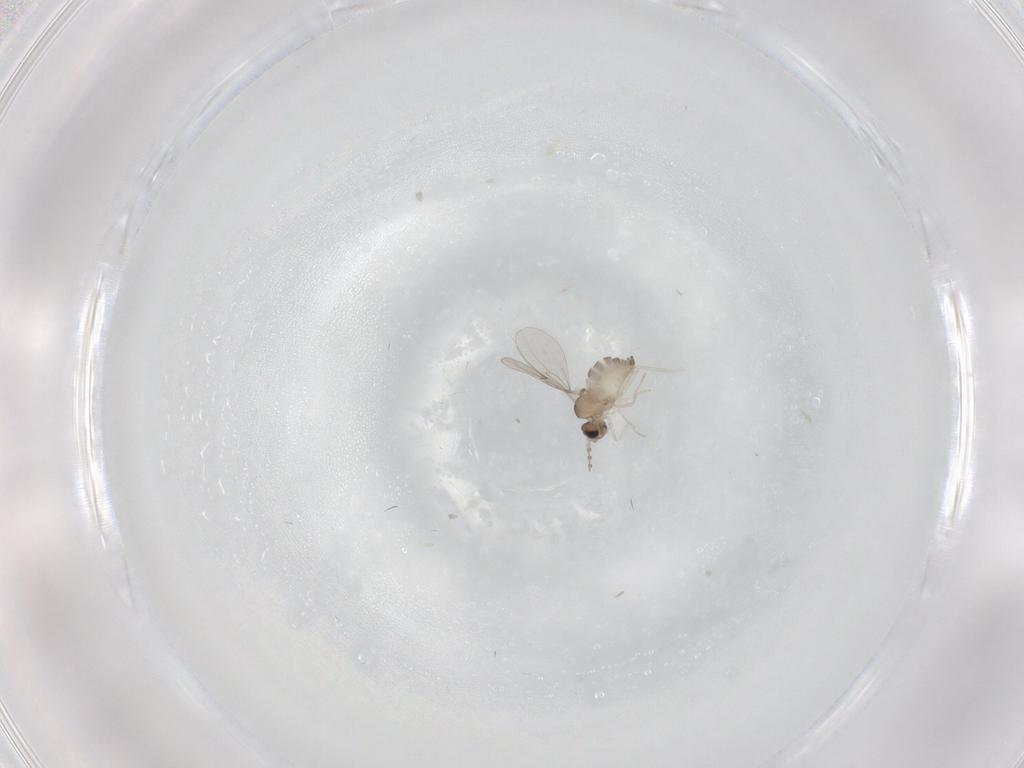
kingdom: Animalia
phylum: Arthropoda
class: Insecta
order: Diptera
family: Cecidomyiidae
